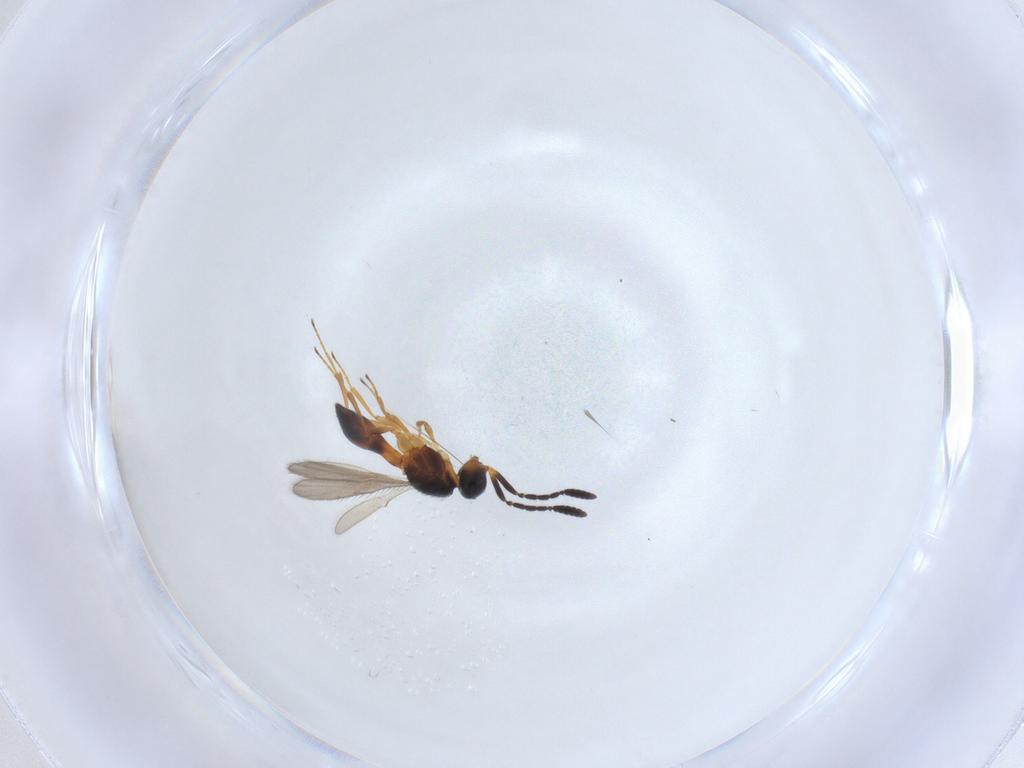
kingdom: Animalia
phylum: Arthropoda
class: Insecta
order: Hymenoptera
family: Scelionidae
